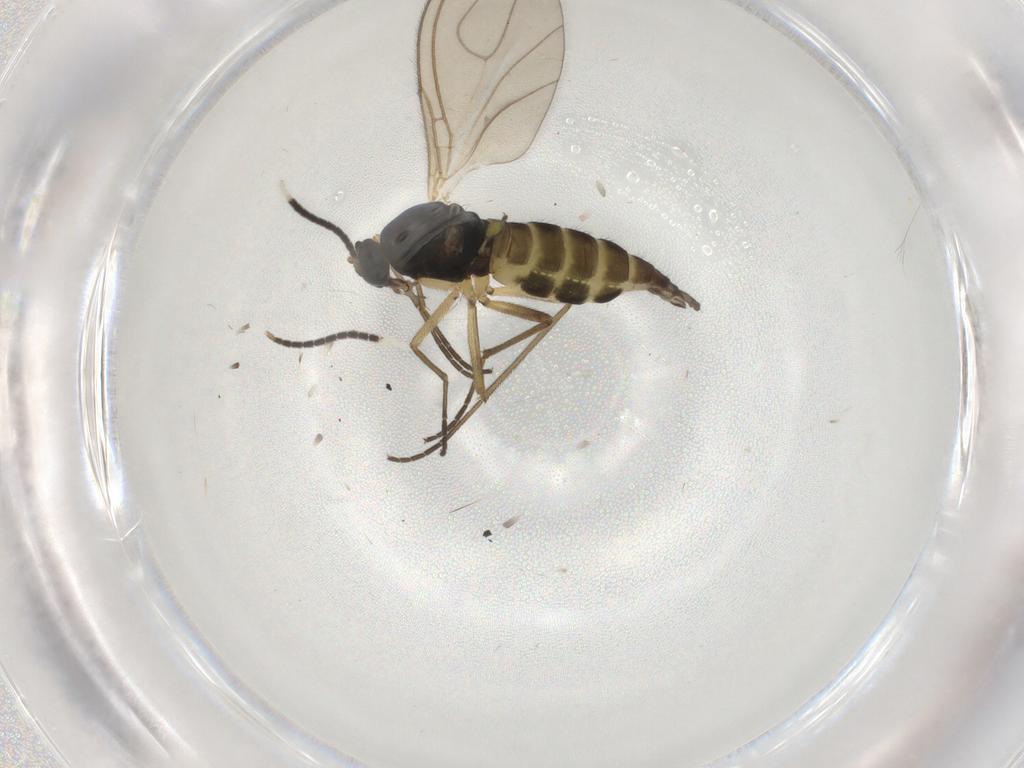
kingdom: Animalia
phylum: Arthropoda
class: Insecta
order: Diptera
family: Sciaridae
